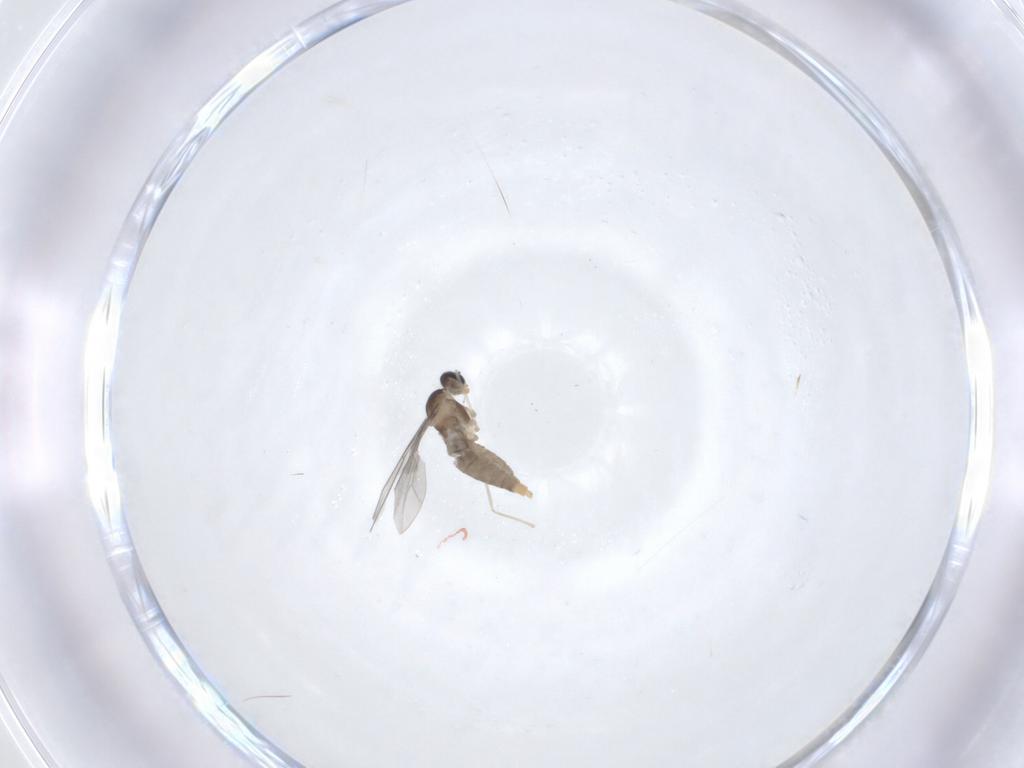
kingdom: Animalia
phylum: Arthropoda
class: Insecta
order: Diptera
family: Cecidomyiidae
